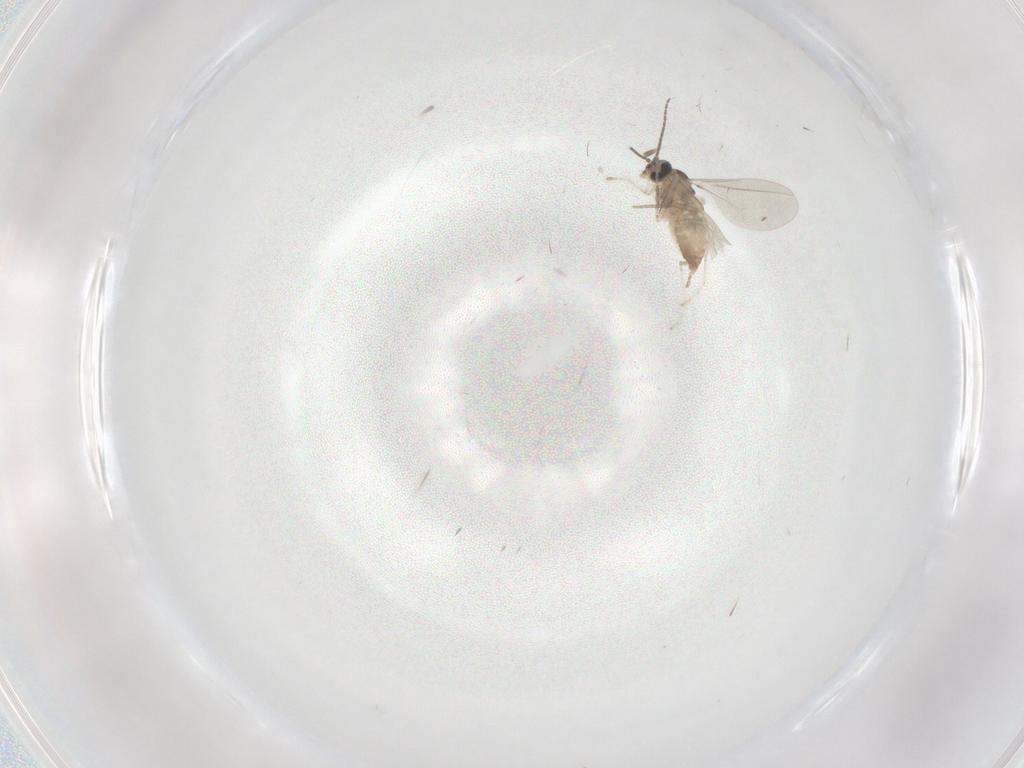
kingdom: Animalia
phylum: Arthropoda
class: Insecta
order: Diptera
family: Phoridae
